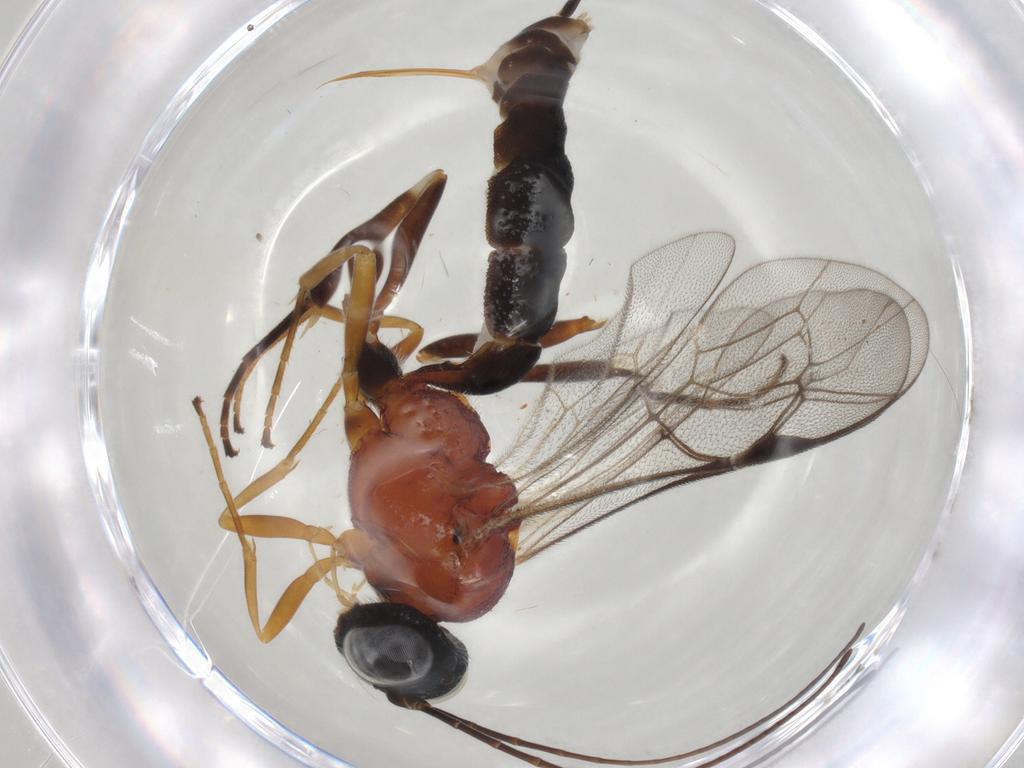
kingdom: Animalia
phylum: Arthropoda
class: Insecta
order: Hymenoptera
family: Ichneumonidae
